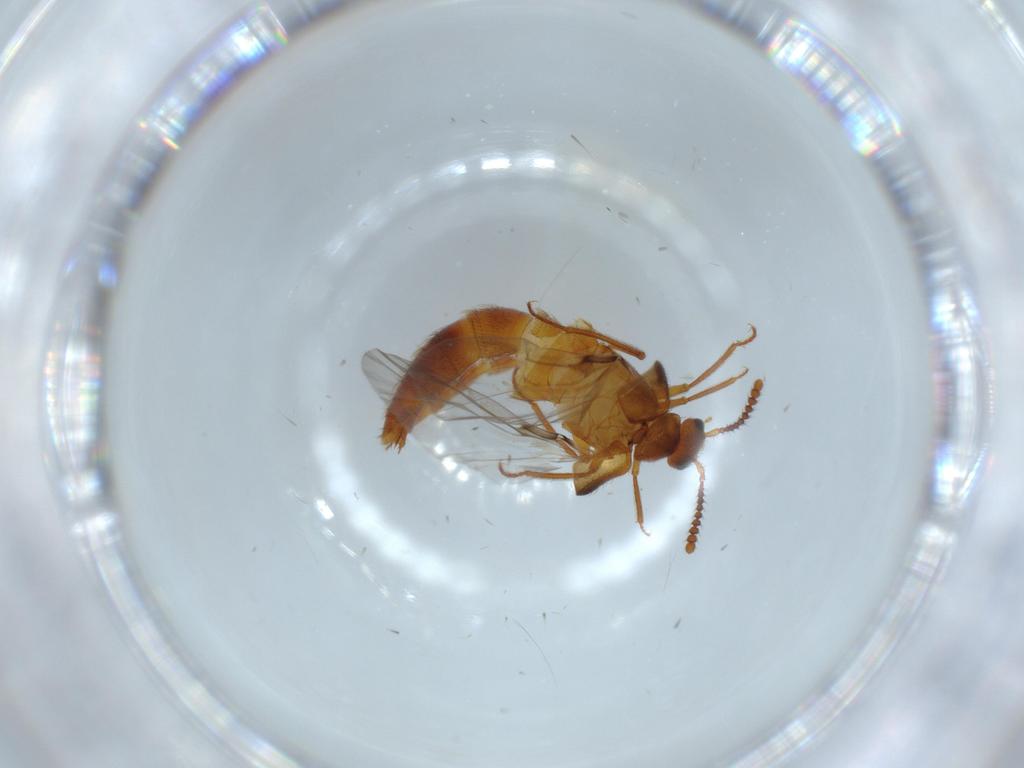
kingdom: Animalia
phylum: Arthropoda
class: Insecta
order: Coleoptera
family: Staphylinidae
